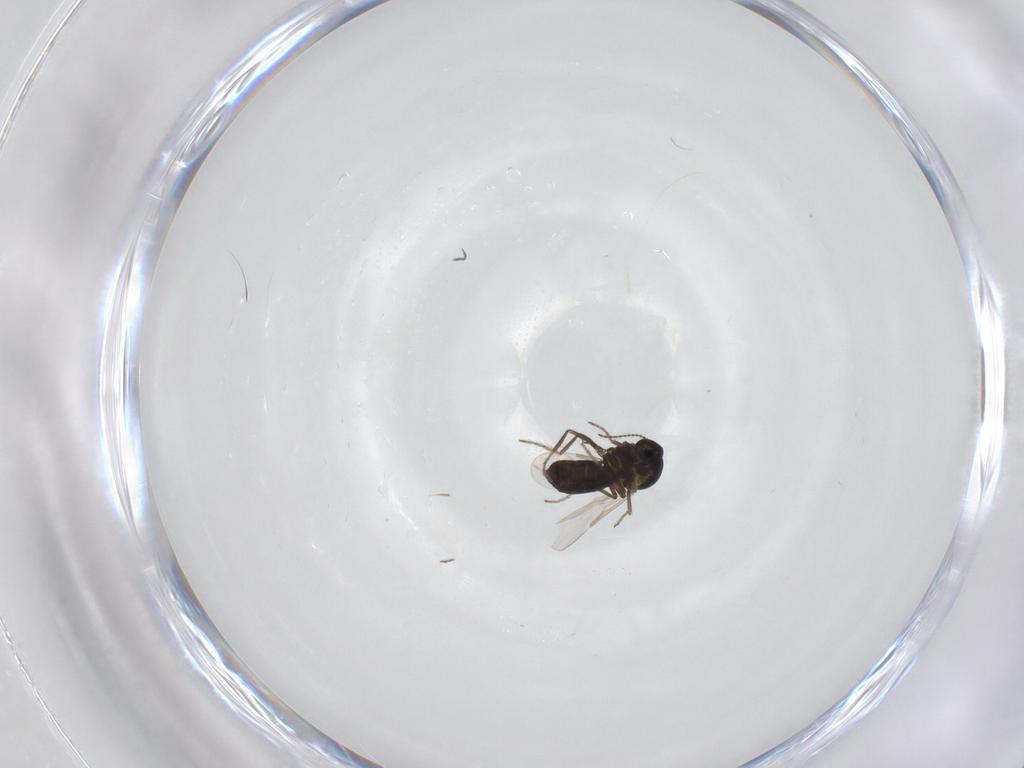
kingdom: Animalia
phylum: Arthropoda
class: Insecta
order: Diptera
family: Ceratopogonidae
